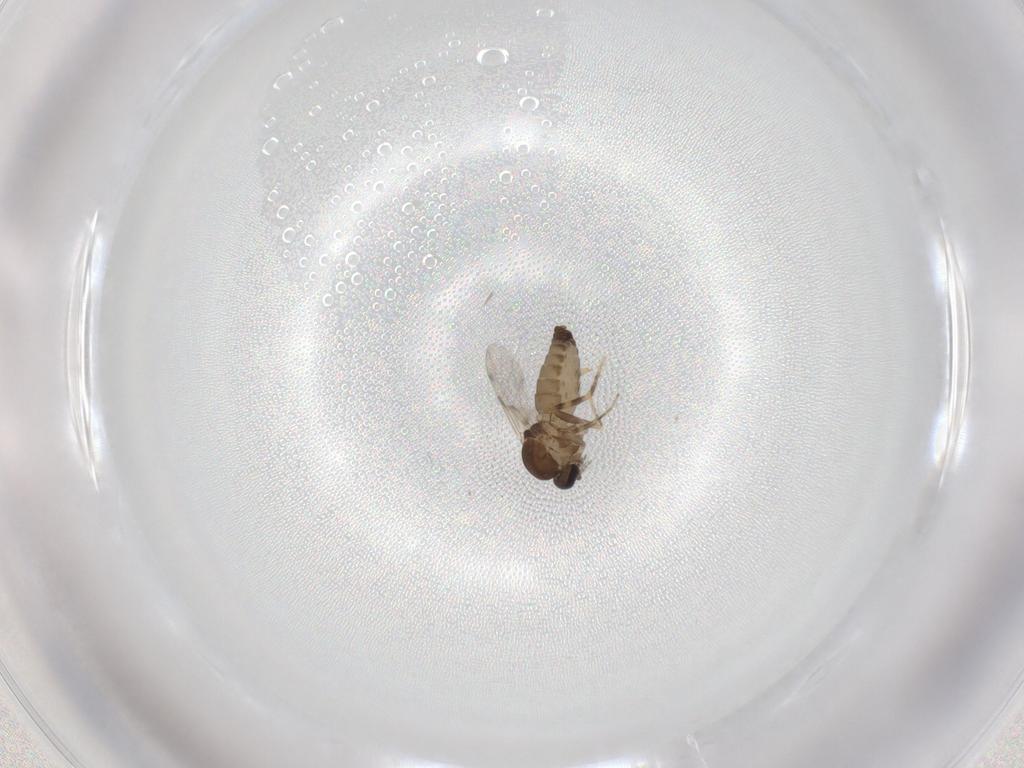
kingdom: Animalia
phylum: Arthropoda
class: Insecta
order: Diptera
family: Ceratopogonidae
